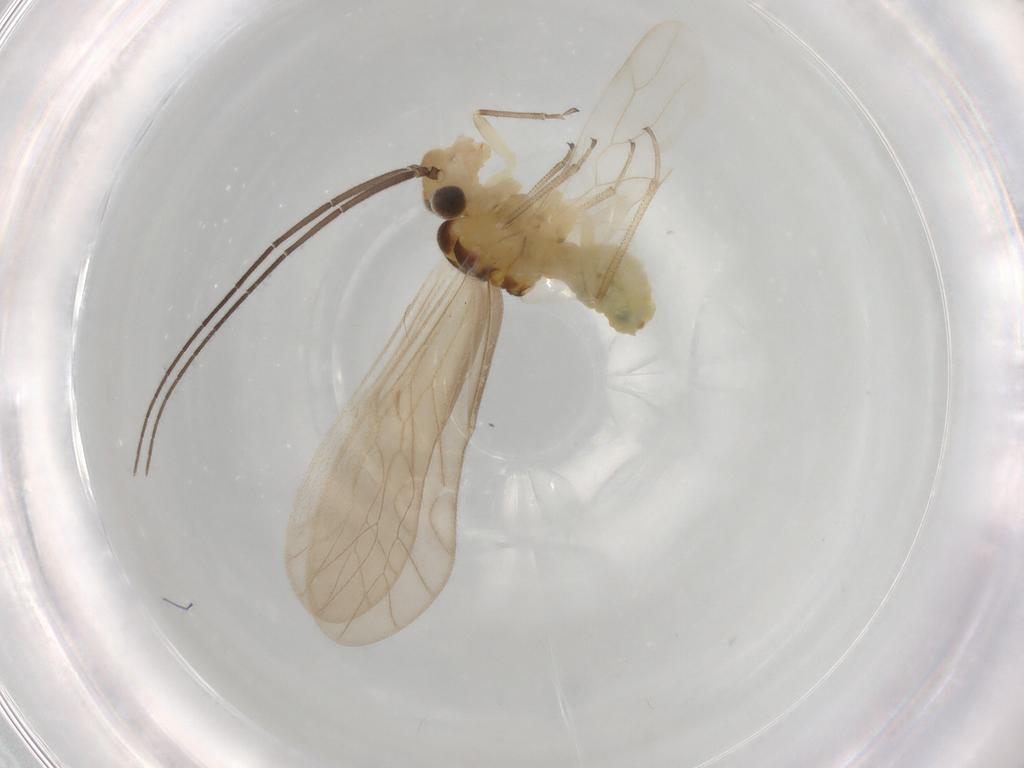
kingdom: Animalia
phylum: Arthropoda
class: Insecta
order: Psocodea
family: Caeciliusidae
